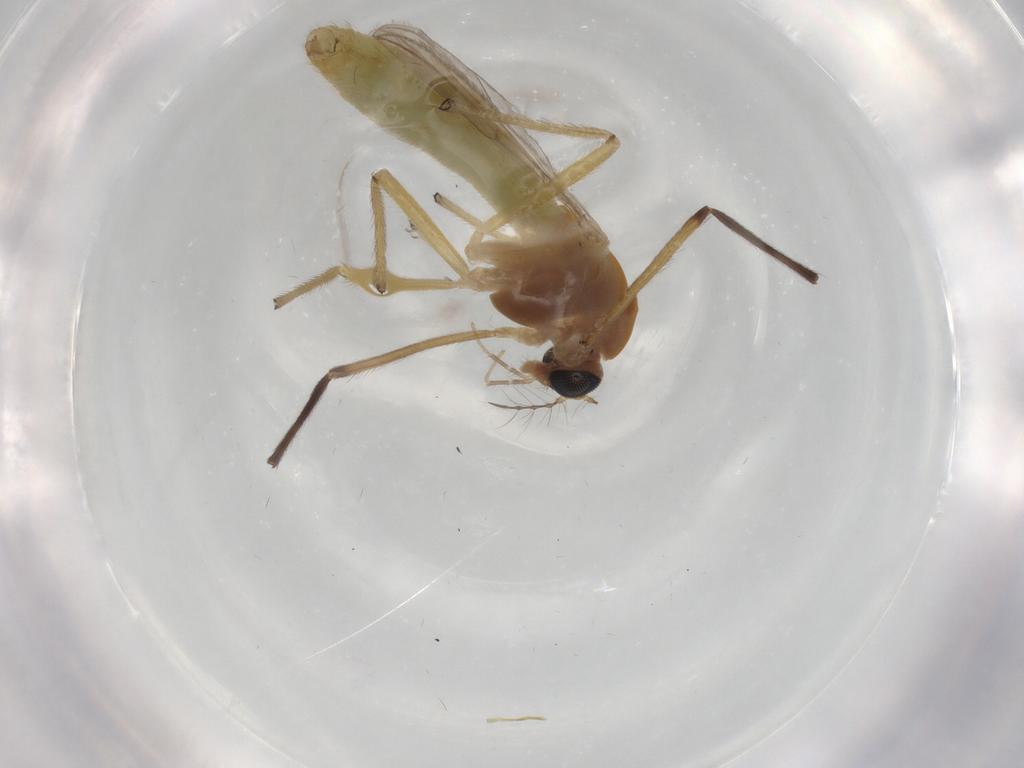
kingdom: Animalia
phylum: Arthropoda
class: Insecta
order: Diptera
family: Chironomidae
